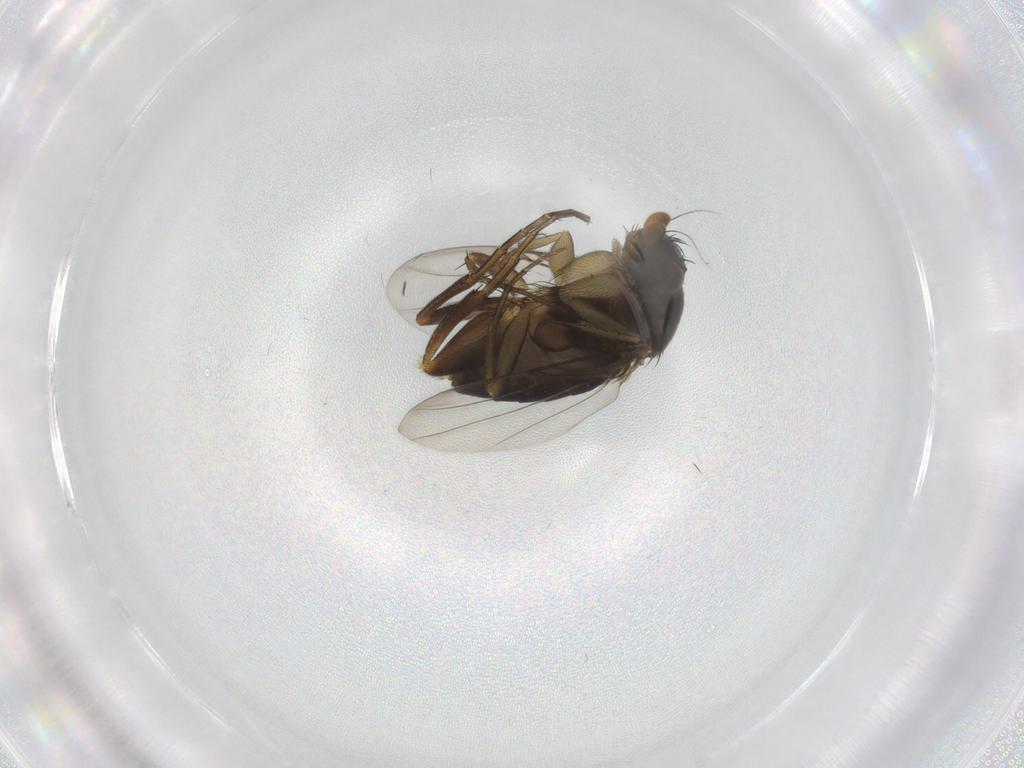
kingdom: Animalia
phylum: Arthropoda
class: Insecta
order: Diptera
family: Phoridae
